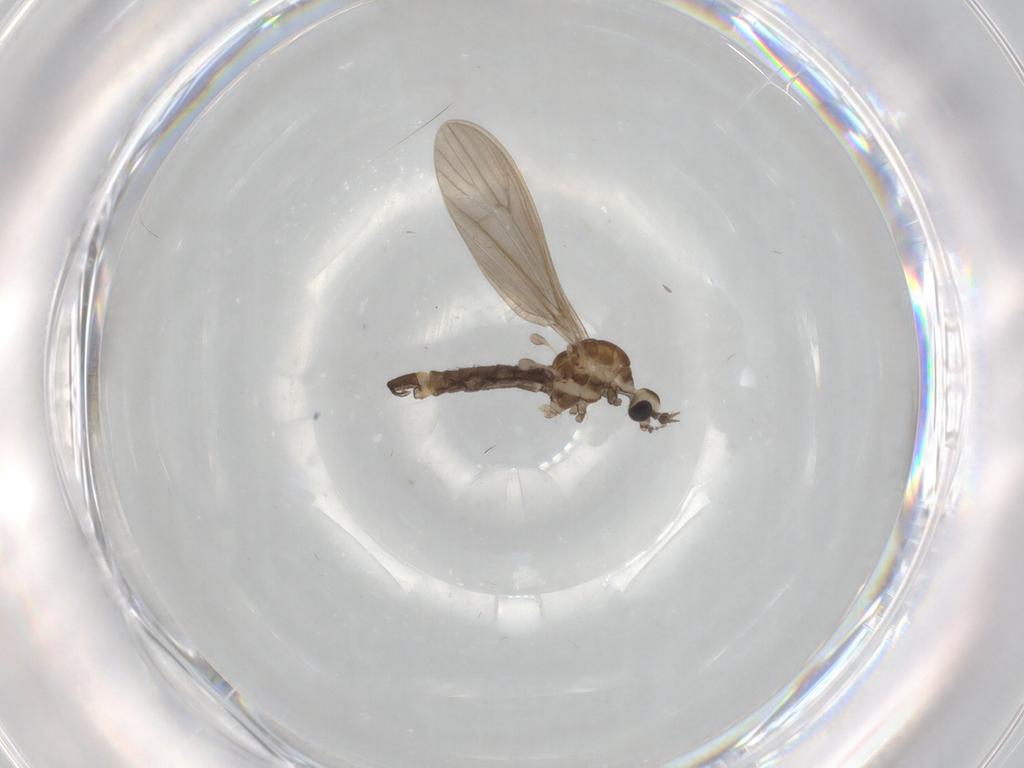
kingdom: Animalia
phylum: Arthropoda
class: Insecta
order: Diptera
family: Limoniidae
